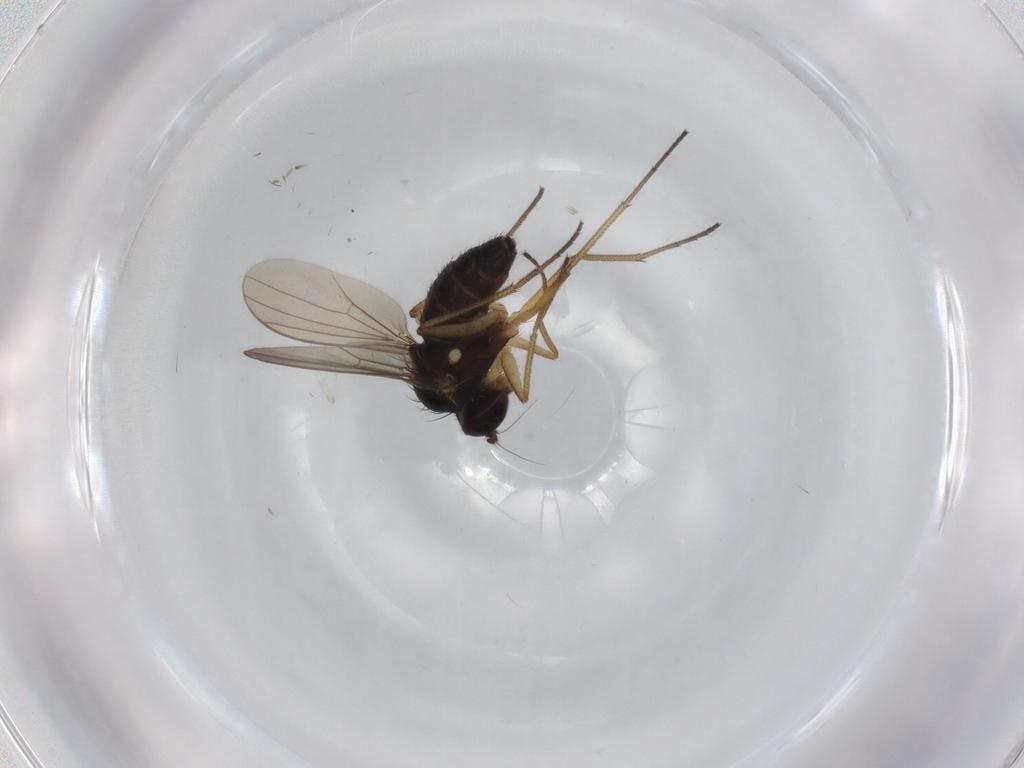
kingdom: Animalia
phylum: Arthropoda
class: Insecta
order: Diptera
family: Dolichopodidae
